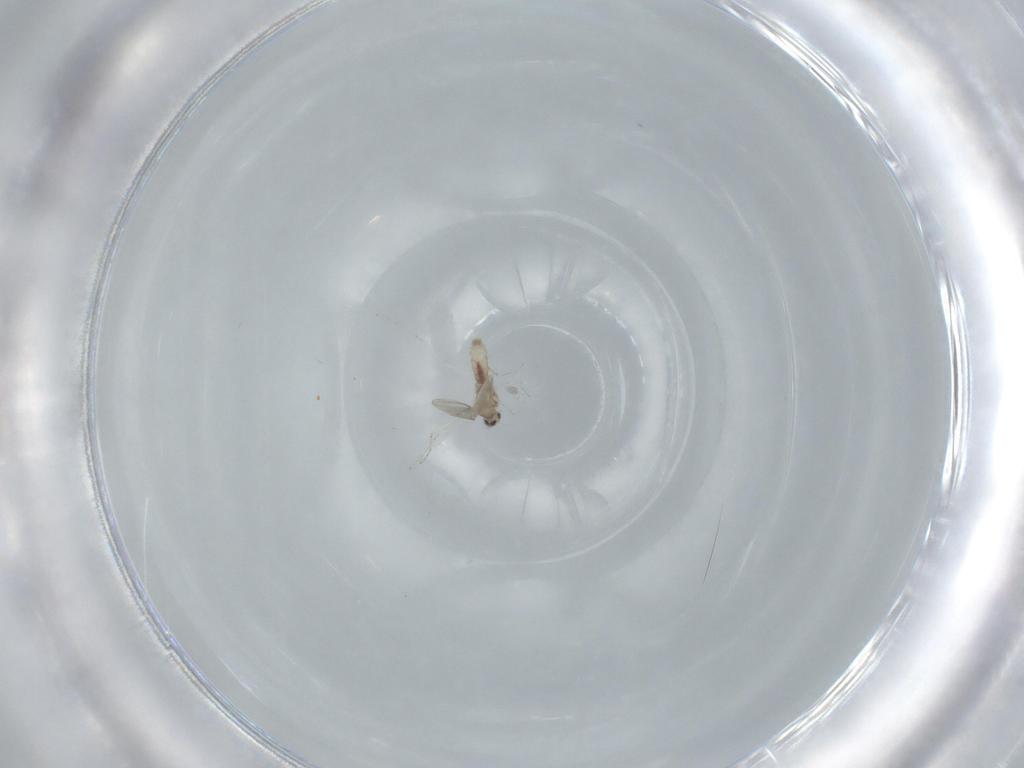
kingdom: Animalia
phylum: Arthropoda
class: Insecta
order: Diptera
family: Cecidomyiidae
